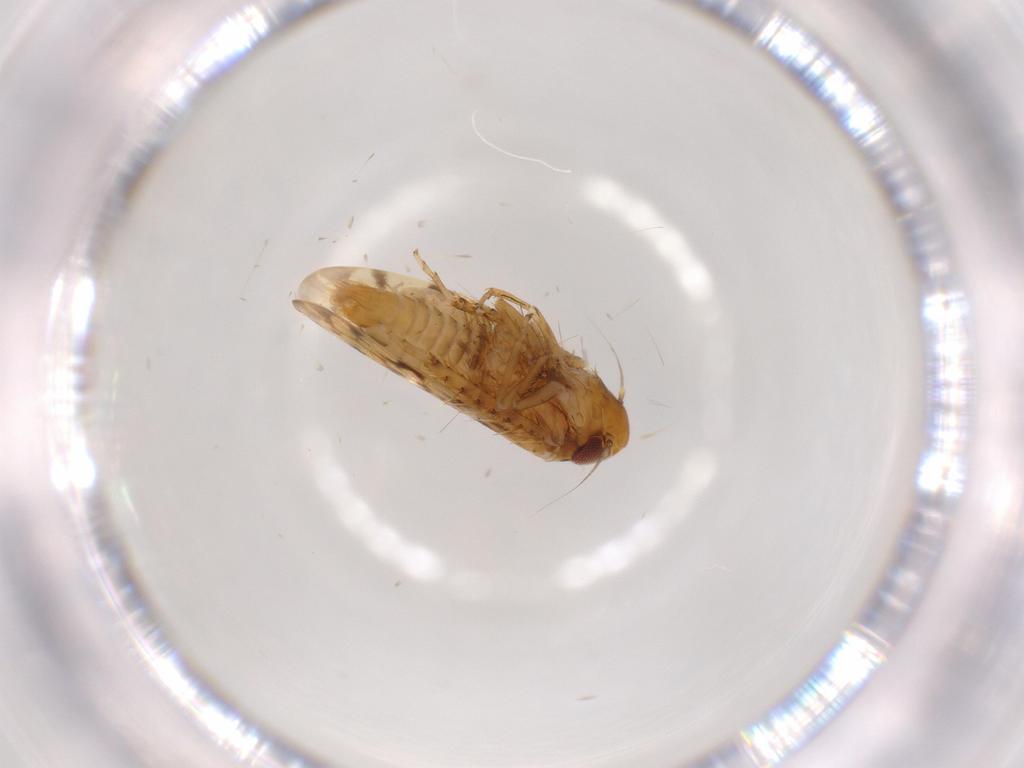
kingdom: Animalia
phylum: Arthropoda
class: Insecta
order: Hemiptera
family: Cicadellidae
